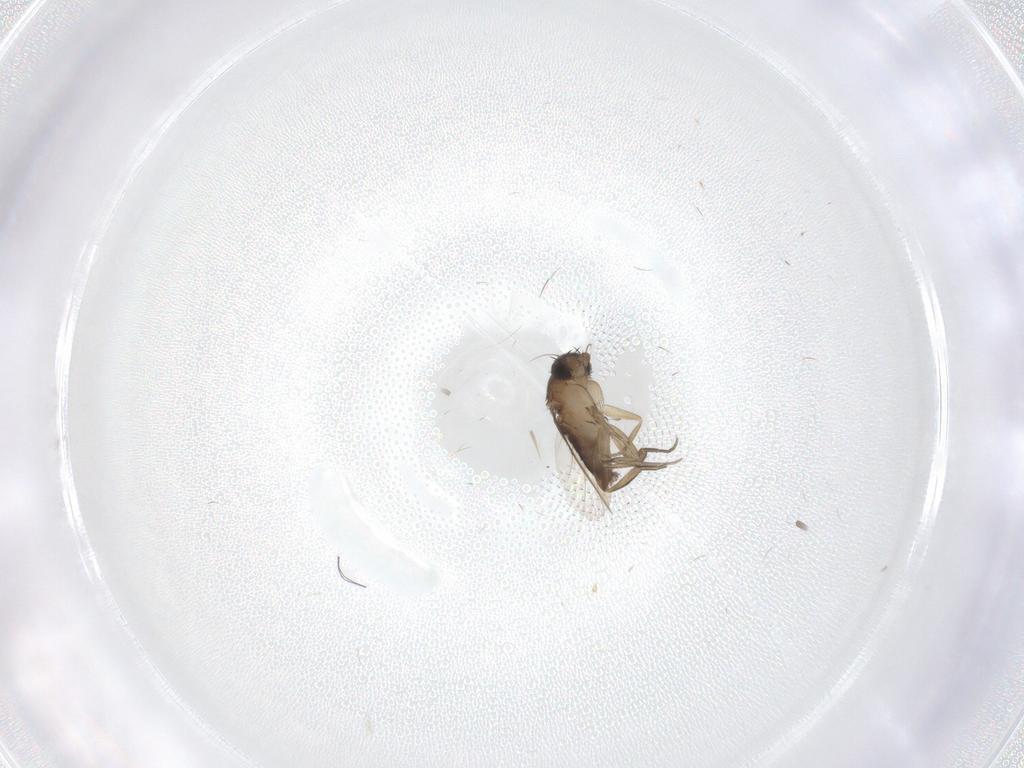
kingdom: Animalia
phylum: Arthropoda
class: Insecta
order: Diptera
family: Phoridae
